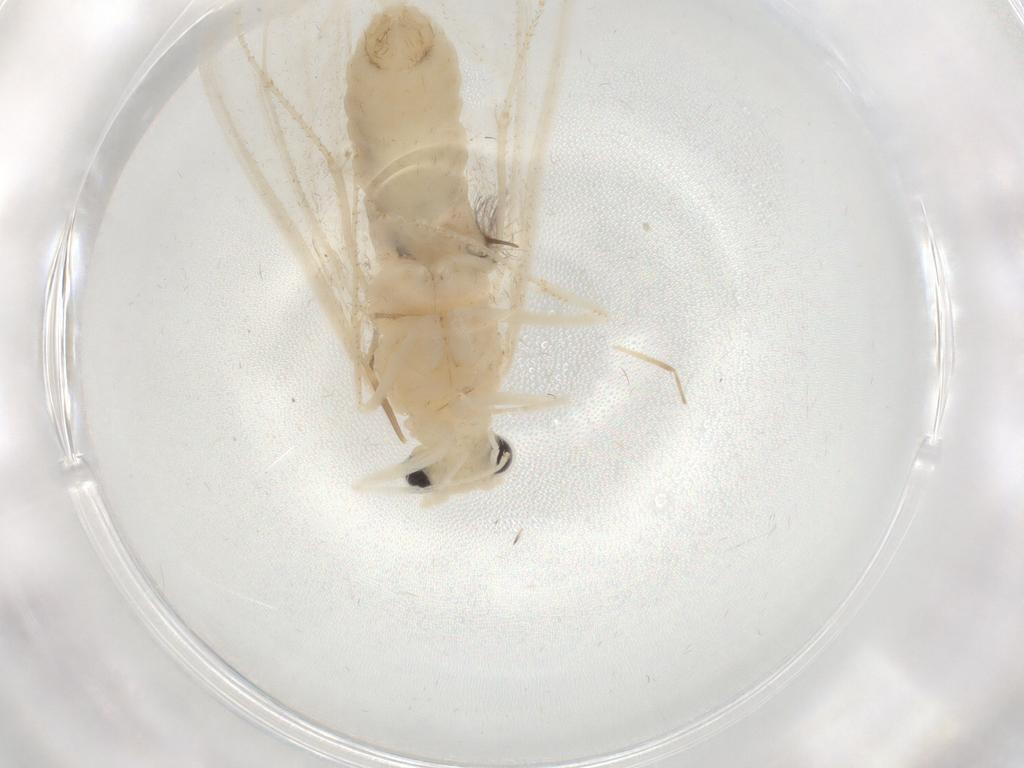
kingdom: Animalia
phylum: Arthropoda
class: Insecta
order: Trichoptera
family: Leptoceridae
